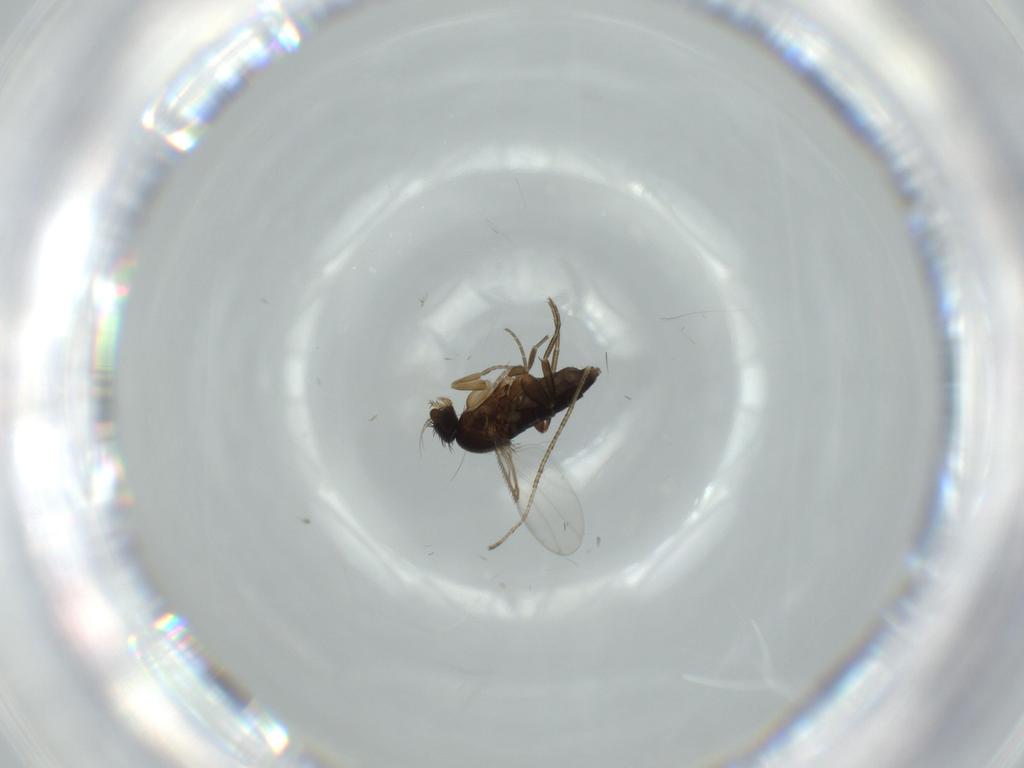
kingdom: Animalia
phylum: Arthropoda
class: Insecta
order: Diptera
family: Phoridae
